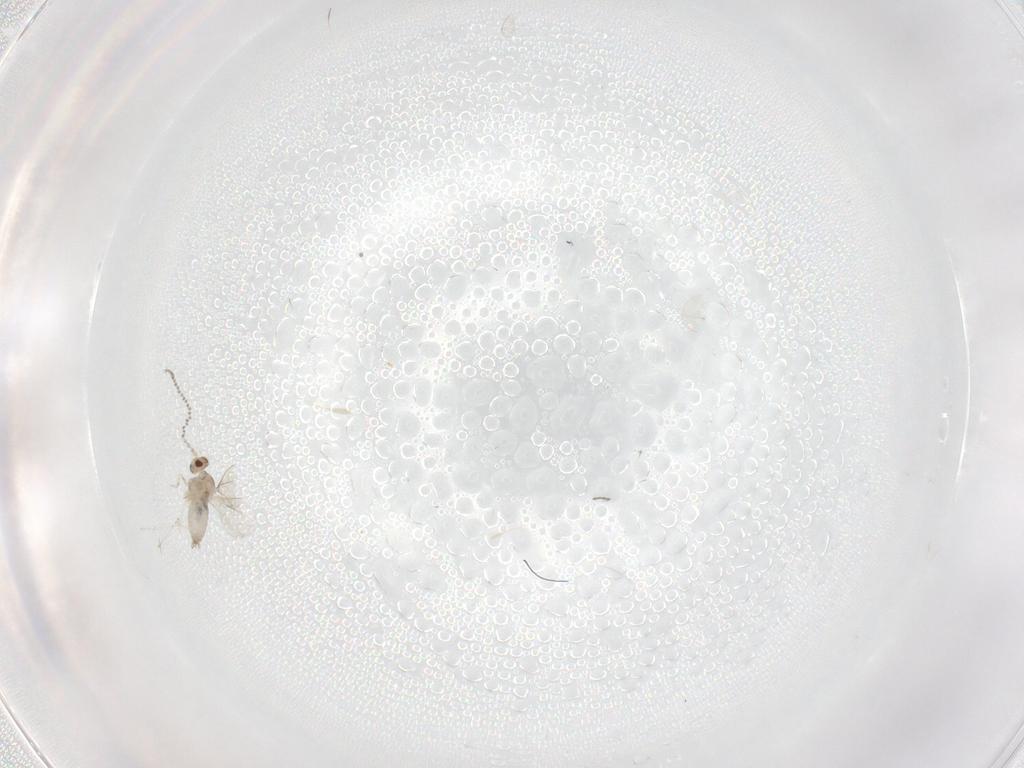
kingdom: Animalia
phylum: Arthropoda
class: Insecta
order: Diptera
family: Cecidomyiidae
